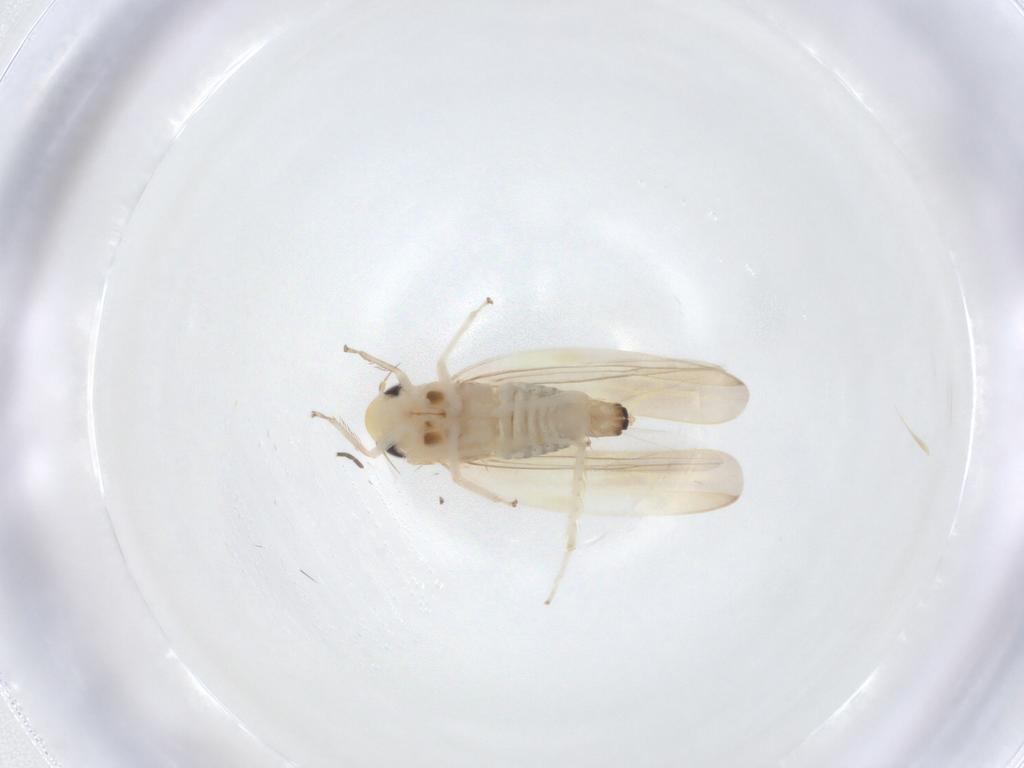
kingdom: Animalia
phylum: Arthropoda
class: Insecta
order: Hemiptera
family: Cicadellidae
